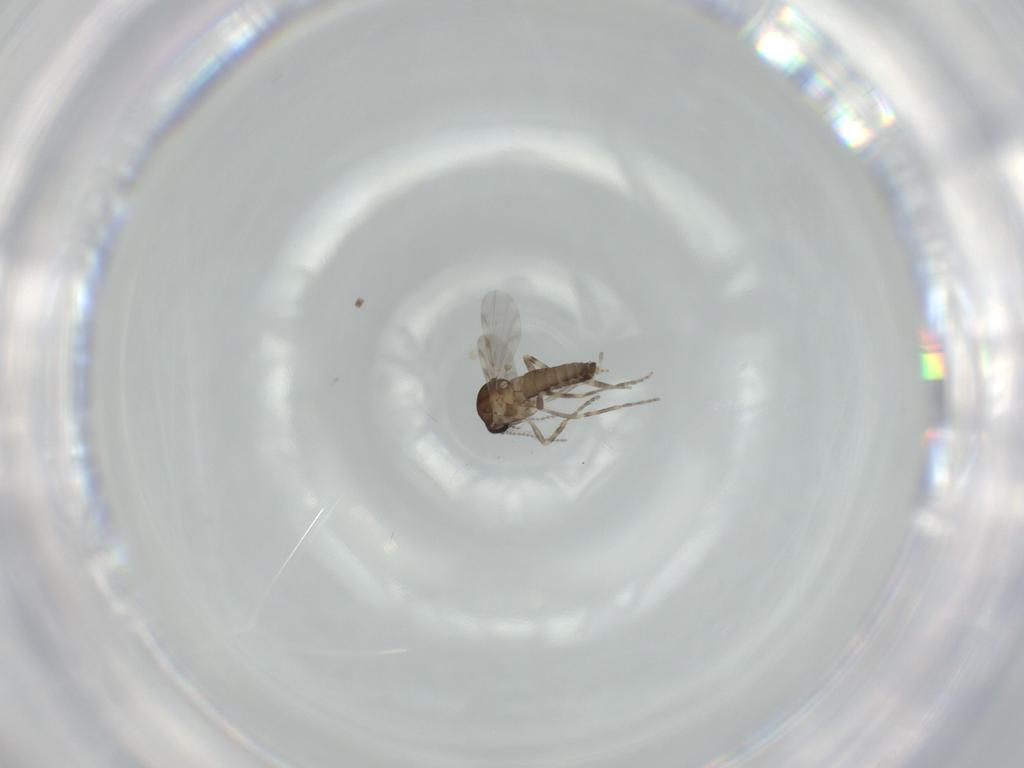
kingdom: Animalia
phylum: Arthropoda
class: Insecta
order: Diptera
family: Ceratopogonidae
